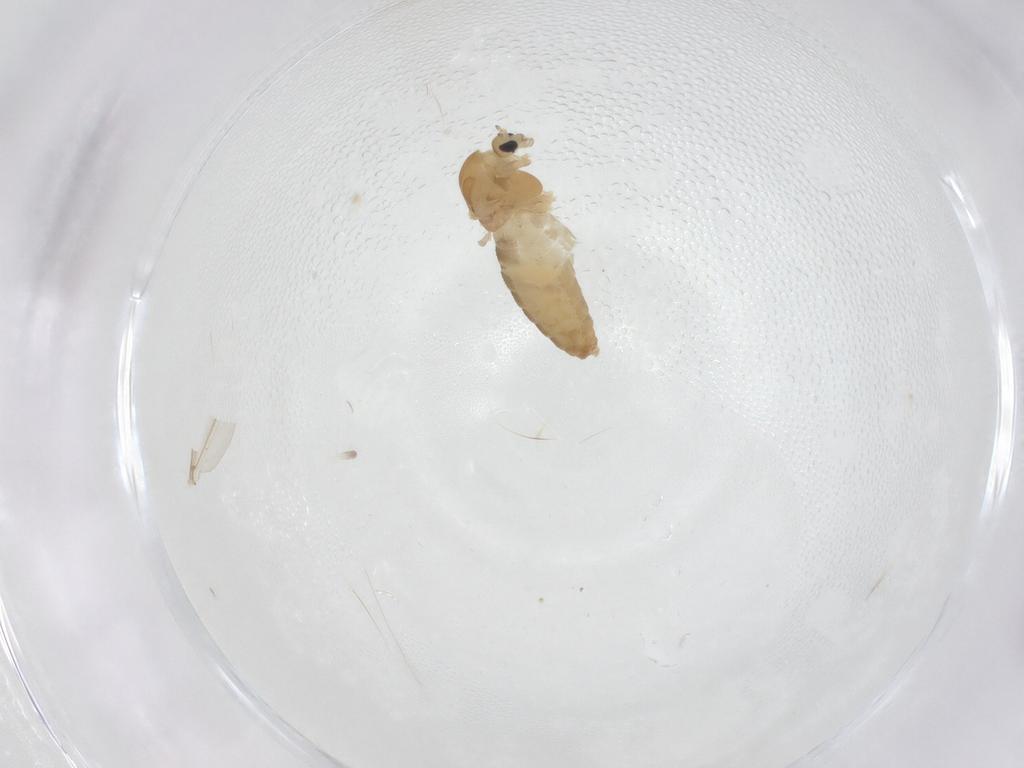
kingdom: Animalia
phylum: Arthropoda
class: Insecta
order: Diptera
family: Chironomidae
